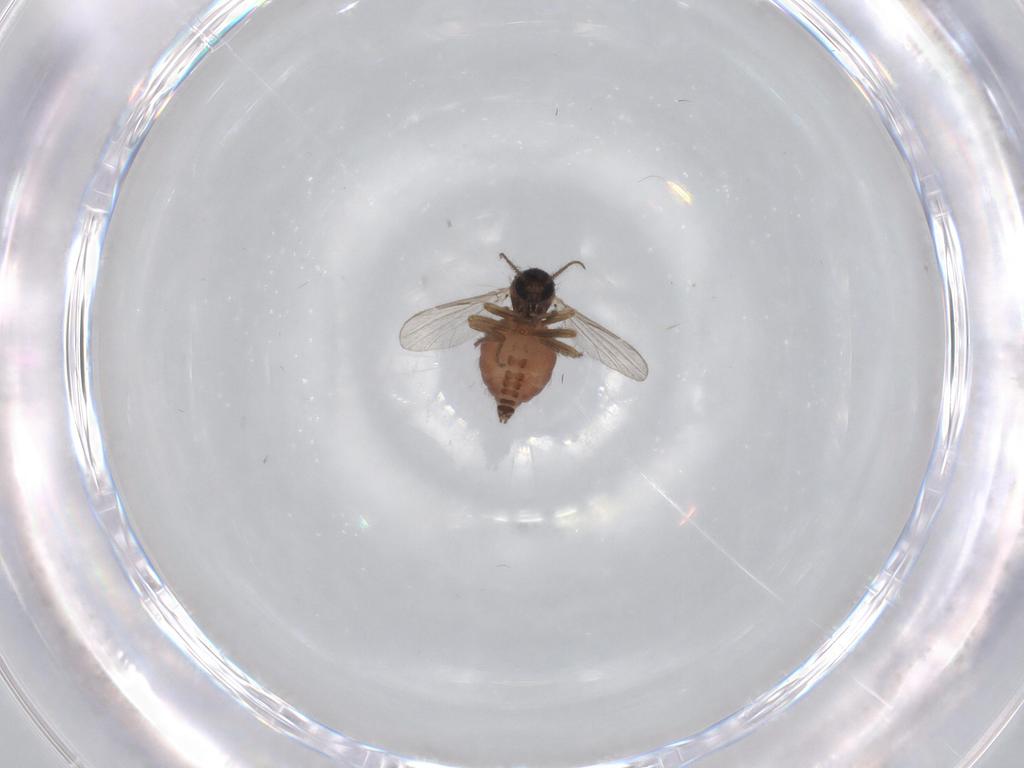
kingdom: Animalia
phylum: Arthropoda
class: Insecta
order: Diptera
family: Ceratopogonidae
